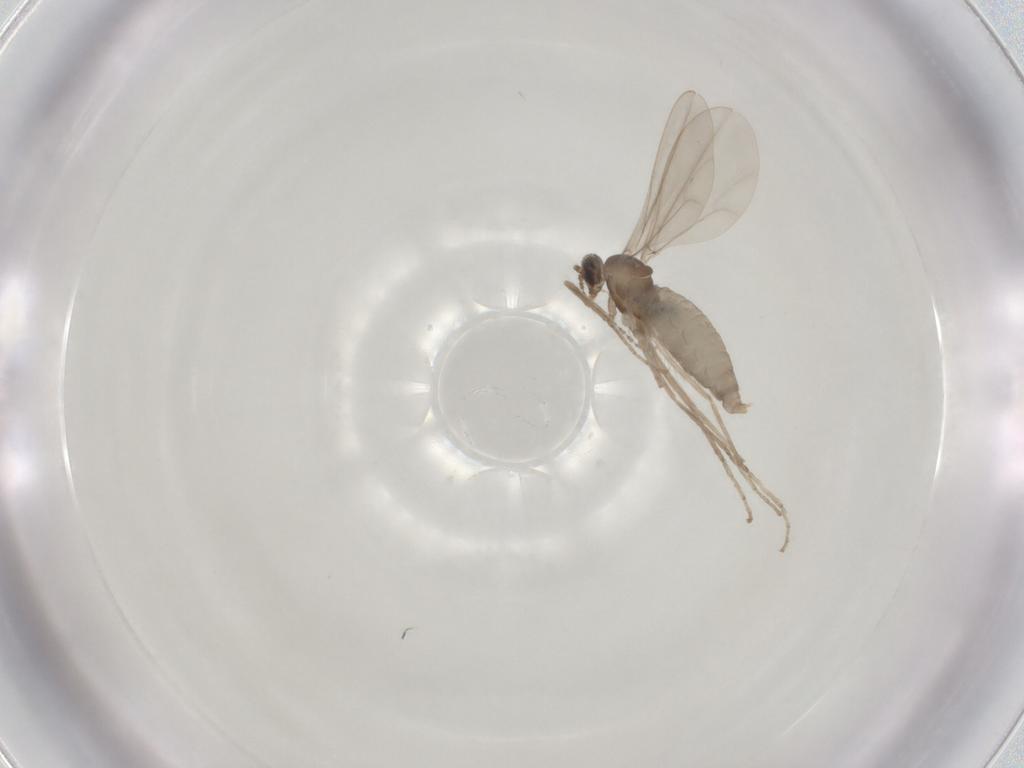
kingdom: Animalia
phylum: Arthropoda
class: Insecta
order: Diptera
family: Cecidomyiidae
